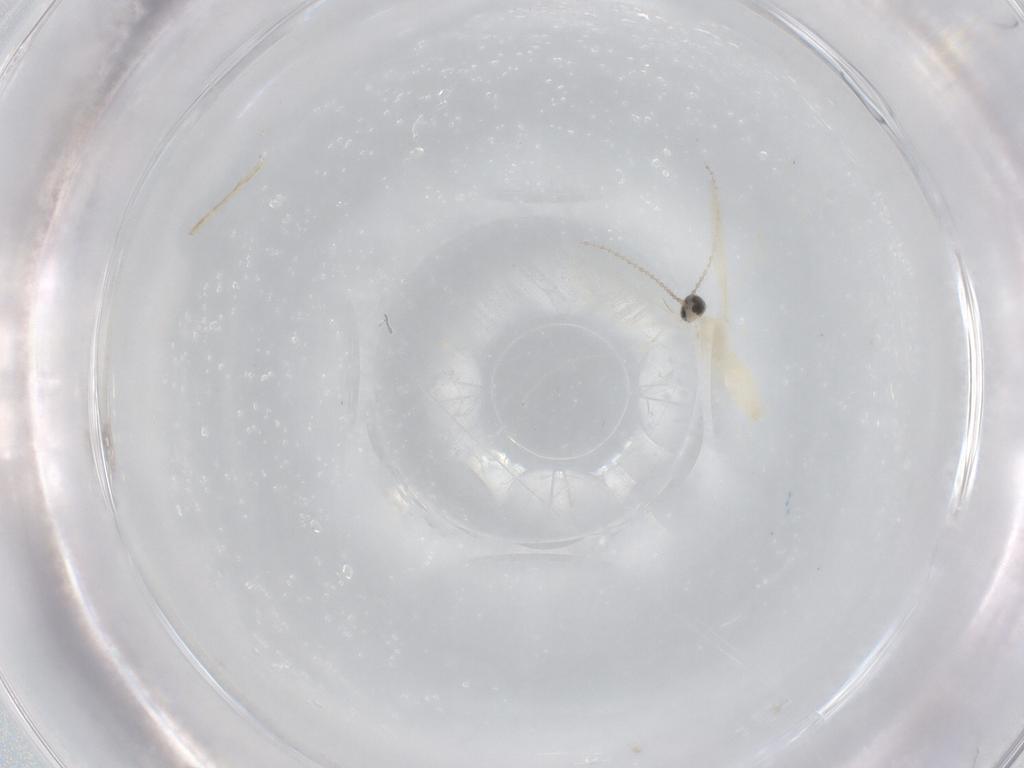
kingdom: Animalia
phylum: Arthropoda
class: Insecta
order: Diptera
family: Cecidomyiidae
